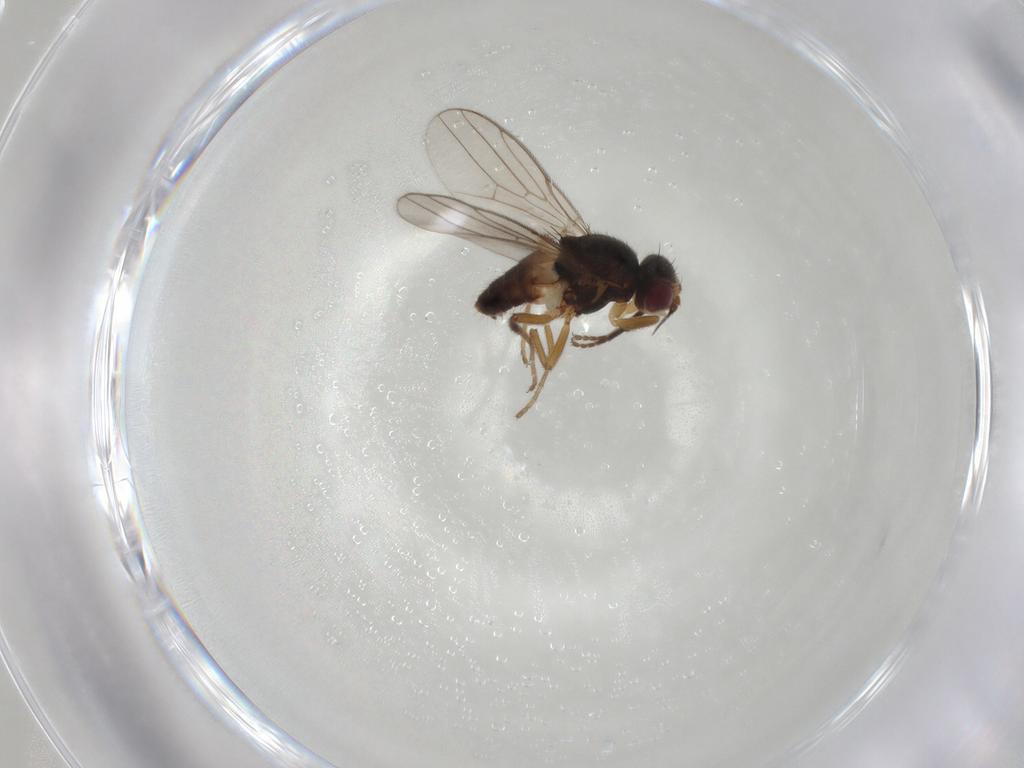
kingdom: Animalia
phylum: Arthropoda
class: Insecta
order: Diptera
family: Chloropidae
